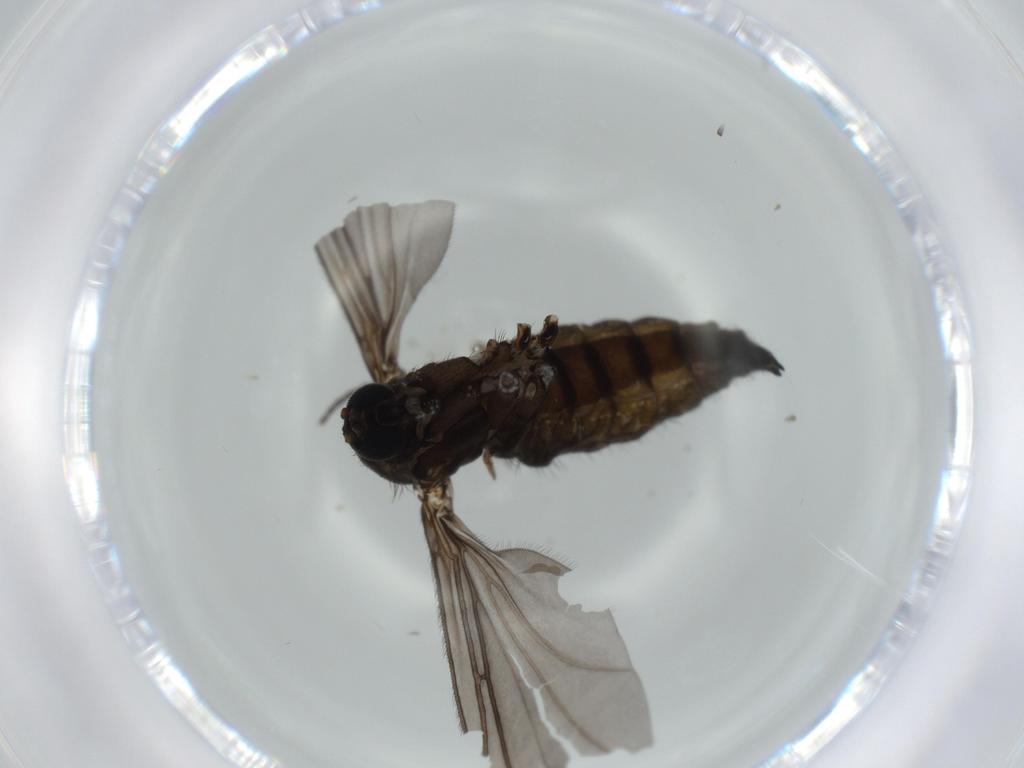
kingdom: Animalia
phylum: Arthropoda
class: Insecta
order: Diptera
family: Sciaridae
